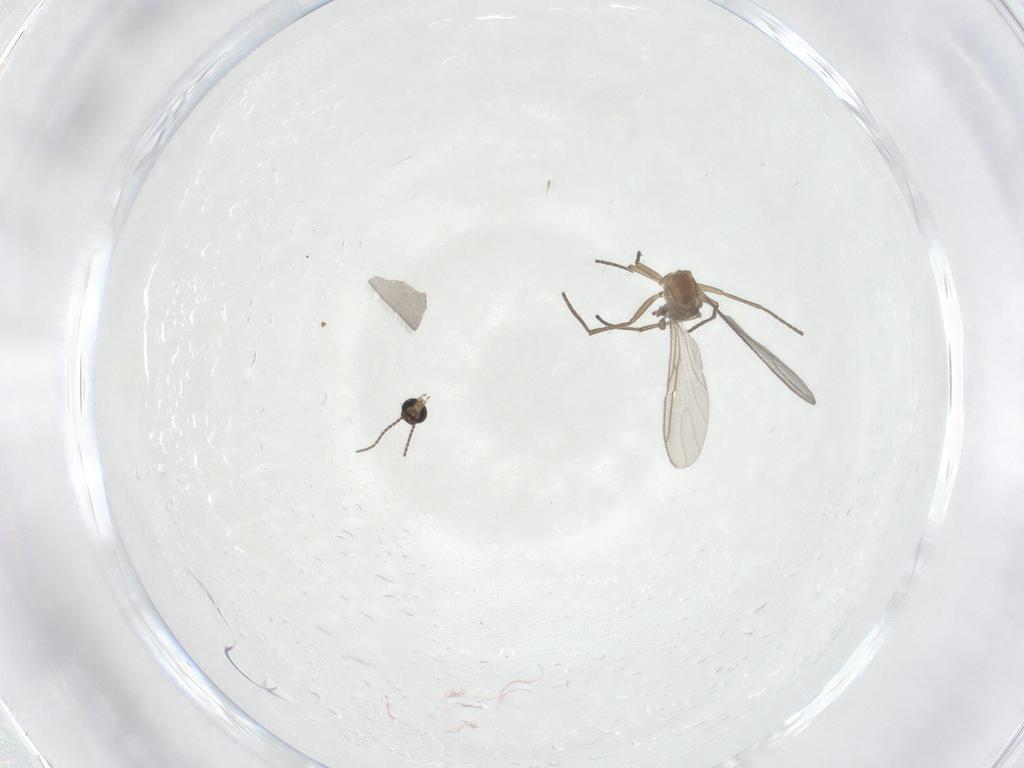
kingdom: Animalia
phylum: Arthropoda
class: Insecta
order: Diptera
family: Sciaridae
